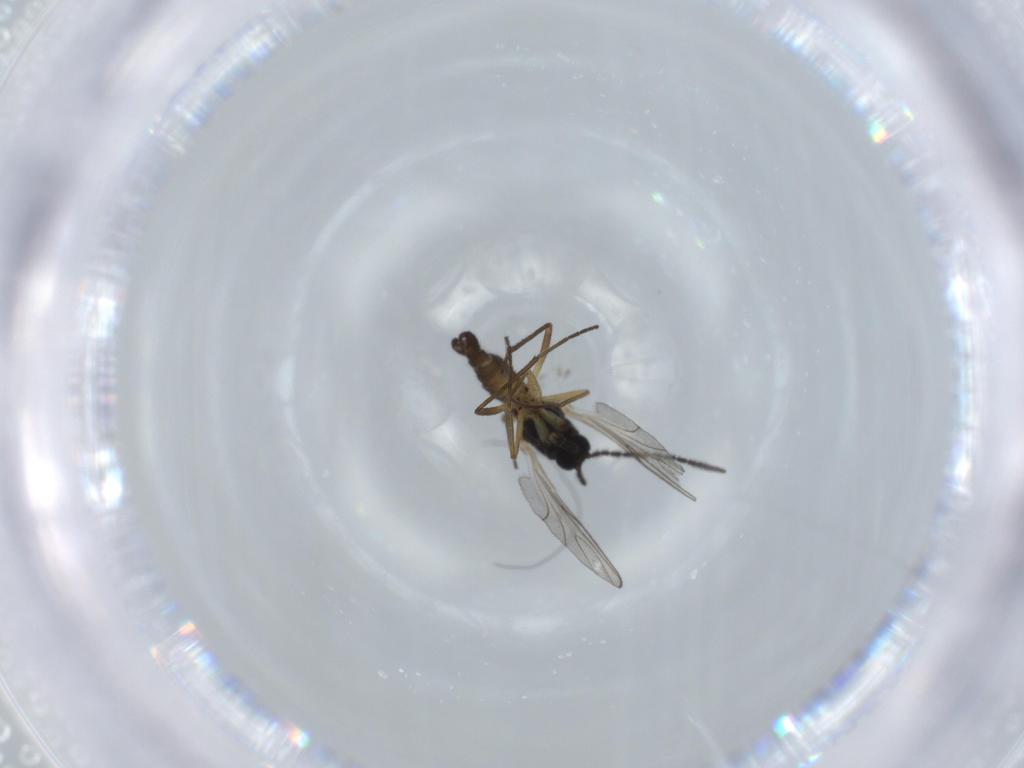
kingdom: Animalia
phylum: Arthropoda
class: Insecta
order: Diptera
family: Sciaridae
